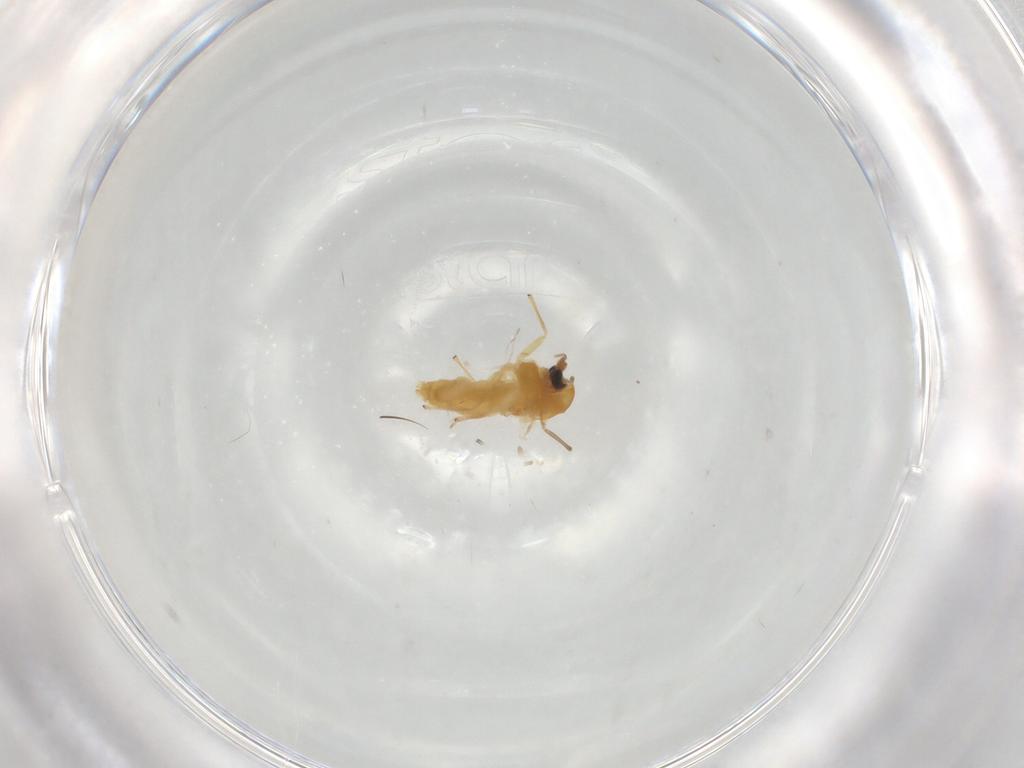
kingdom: Animalia
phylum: Arthropoda
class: Insecta
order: Diptera
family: Chironomidae
